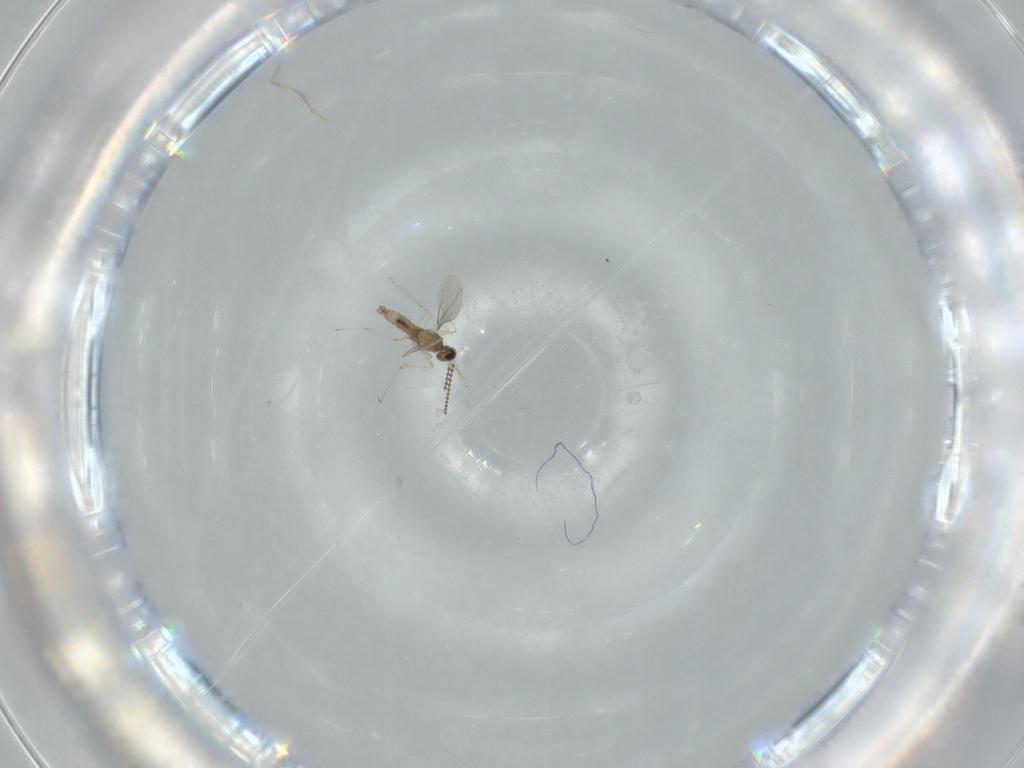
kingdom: Animalia
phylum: Arthropoda
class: Insecta
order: Diptera
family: Cecidomyiidae
